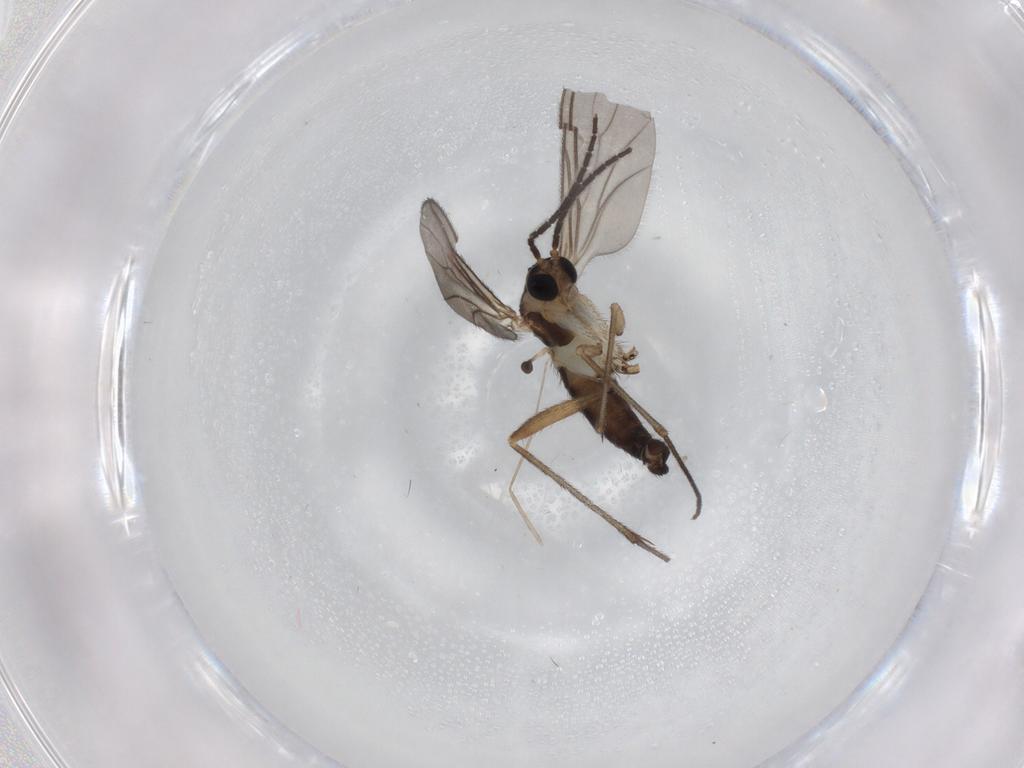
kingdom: Animalia
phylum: Arthropoda
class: Insecta
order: Diptera
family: Sciaridae
